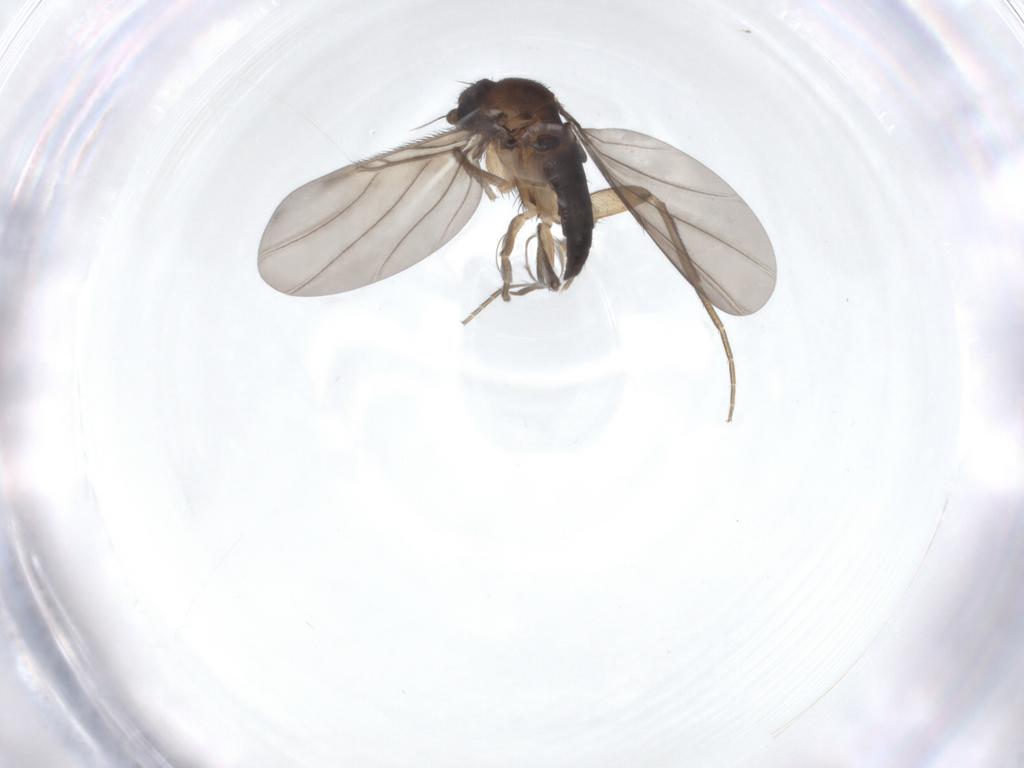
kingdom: Animalia
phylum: Arthropoda
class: Insecta
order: Diptera
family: Phoridae
